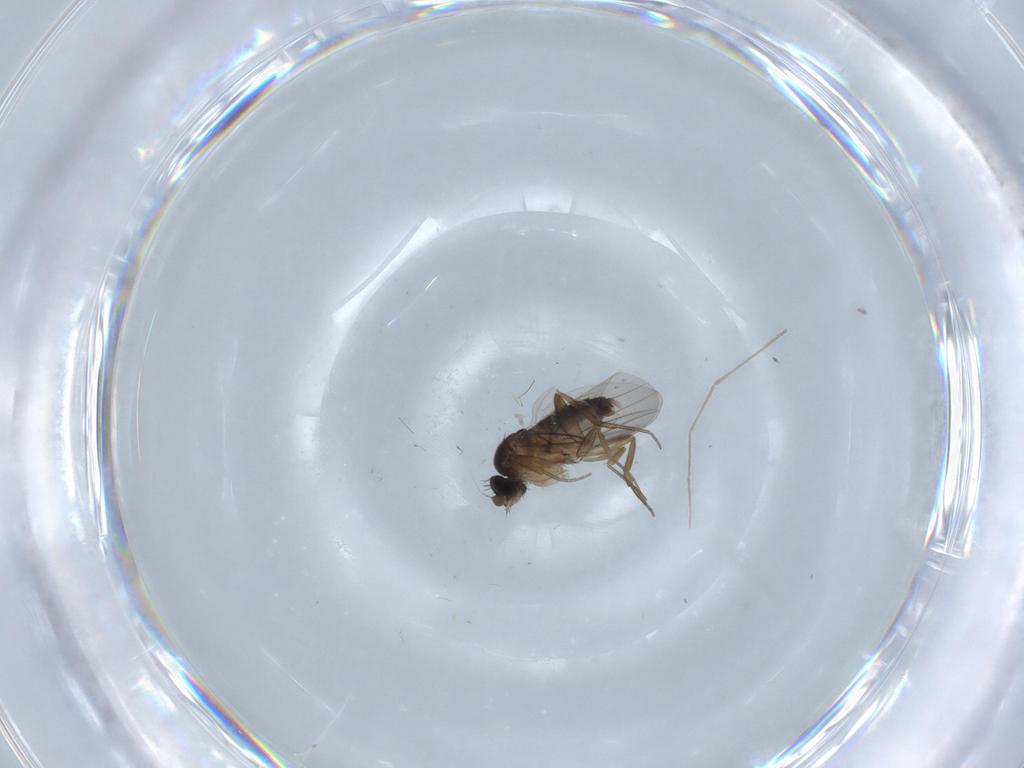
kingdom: Animalia
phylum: Arthropoda
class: Insecta
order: Diptera
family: Phoridae
